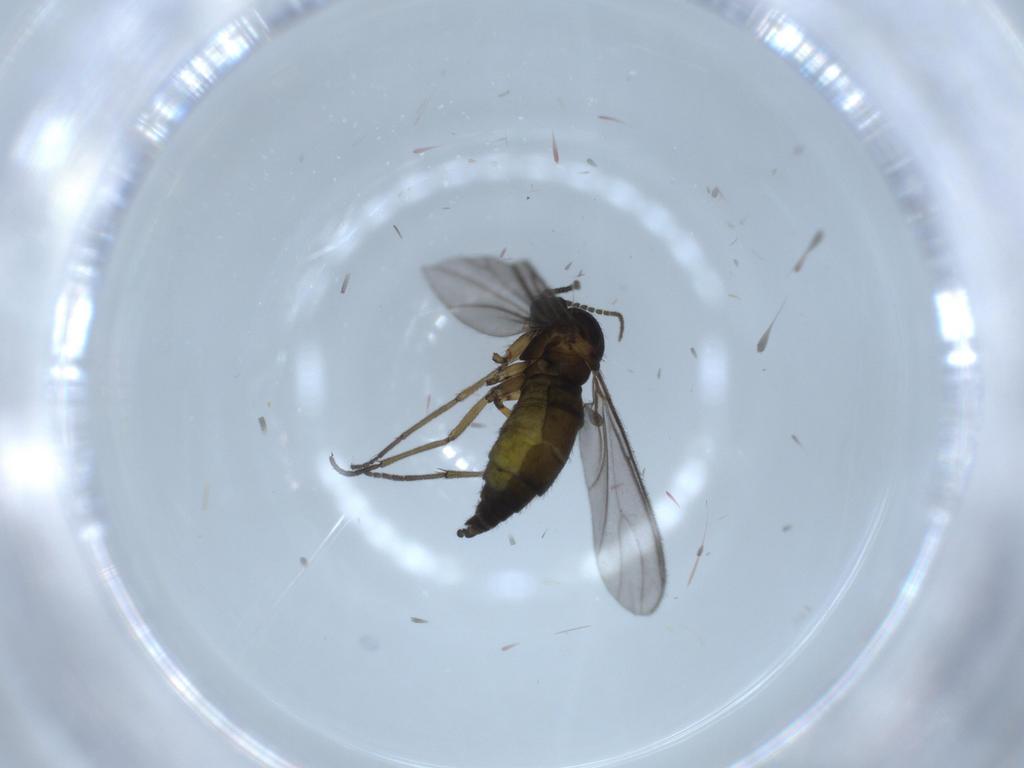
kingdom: Animalia
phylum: Arthropoda
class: Insecta
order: Diptera
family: Sciaridae
